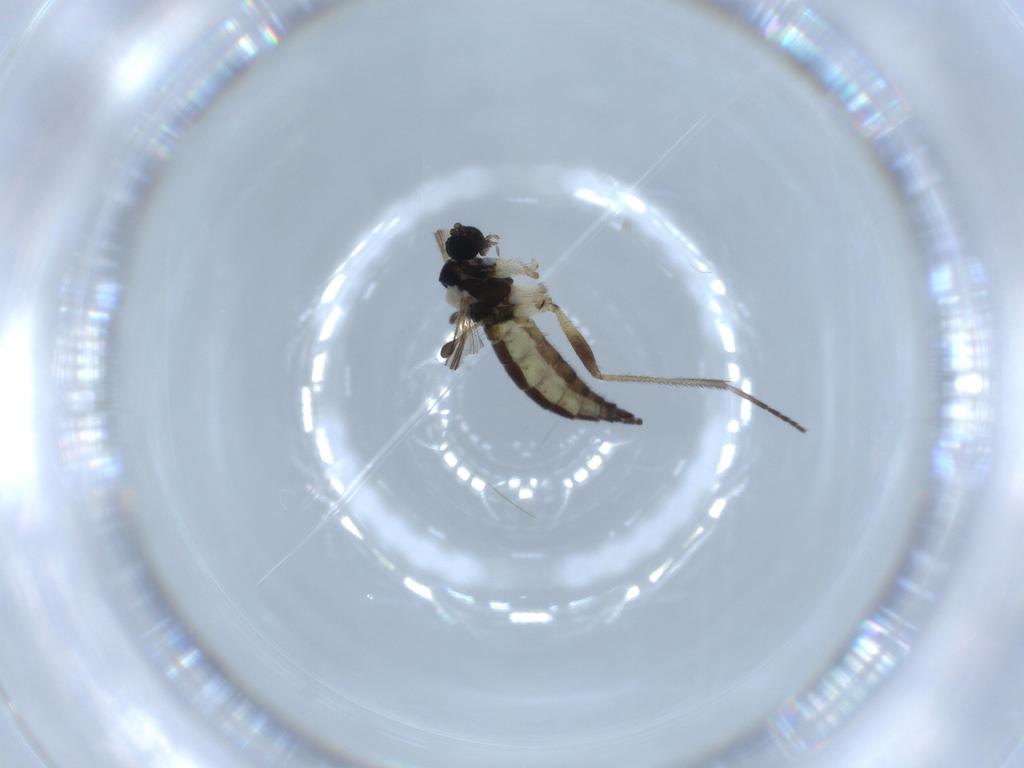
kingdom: Animalia
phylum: Arthropoda
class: Insecta
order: Diptera
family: Sciaridae
